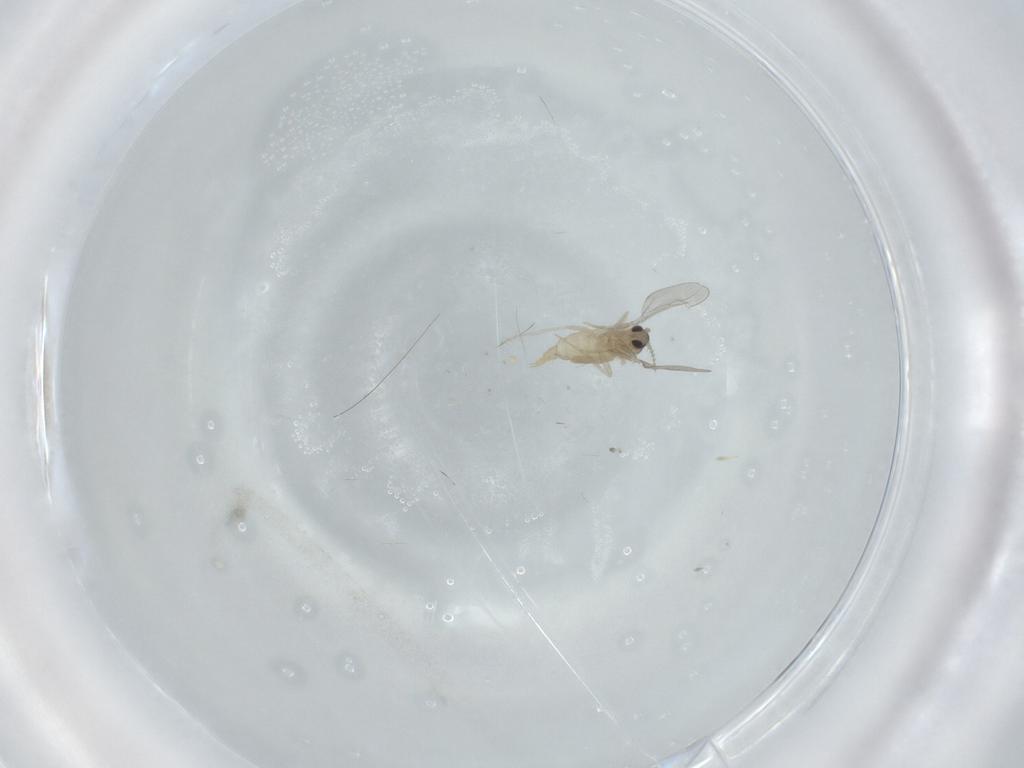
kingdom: Animalia
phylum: Arthropoda
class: Insecta
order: Diptera
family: Cecidomyiidae
